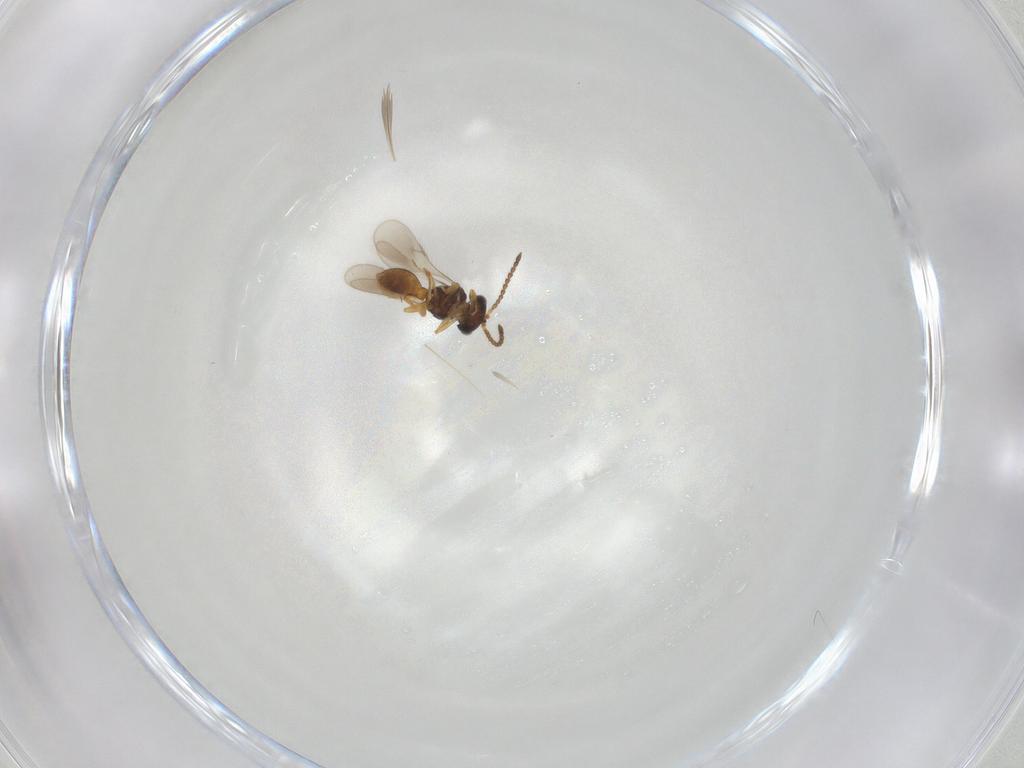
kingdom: Animalia
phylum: Arthropoda
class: Insecta
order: Hymenoptera
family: Scelionidae
